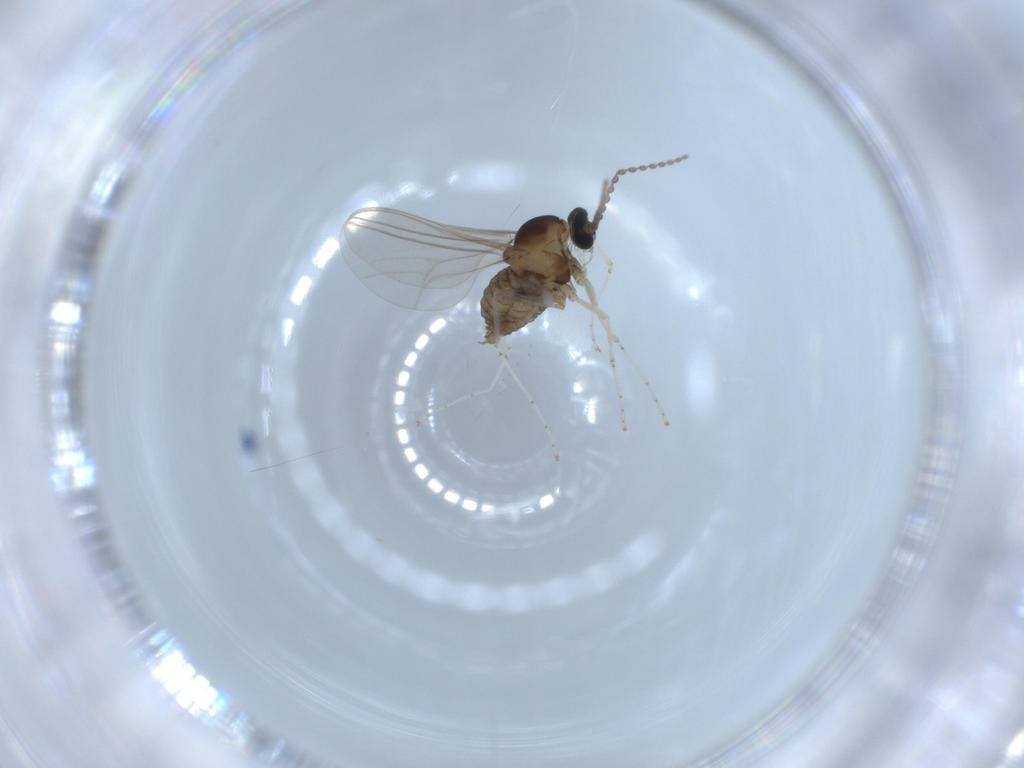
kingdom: Animalia
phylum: Arthropoda
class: Insecta
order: Diptera
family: Cecidomyiidae
